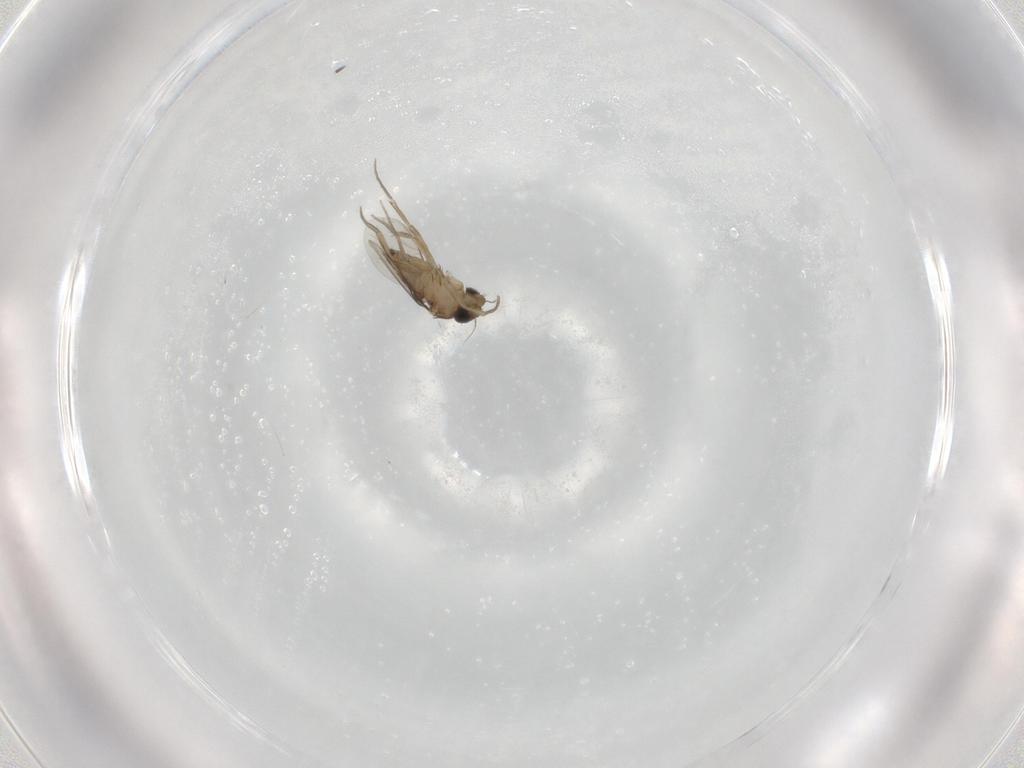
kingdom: Animalia
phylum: Arthropoda
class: Insecta
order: Diptera
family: Phoridae
